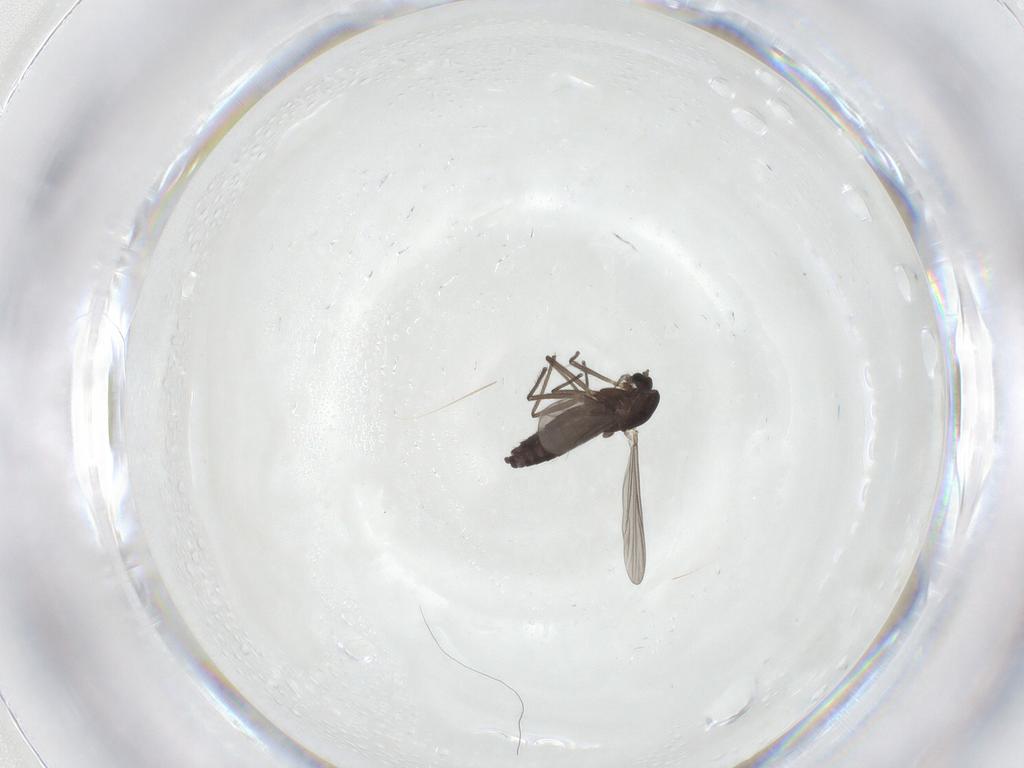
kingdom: Animalia
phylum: Arthropoda
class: Insecta
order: Diptera
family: Chironomidae
